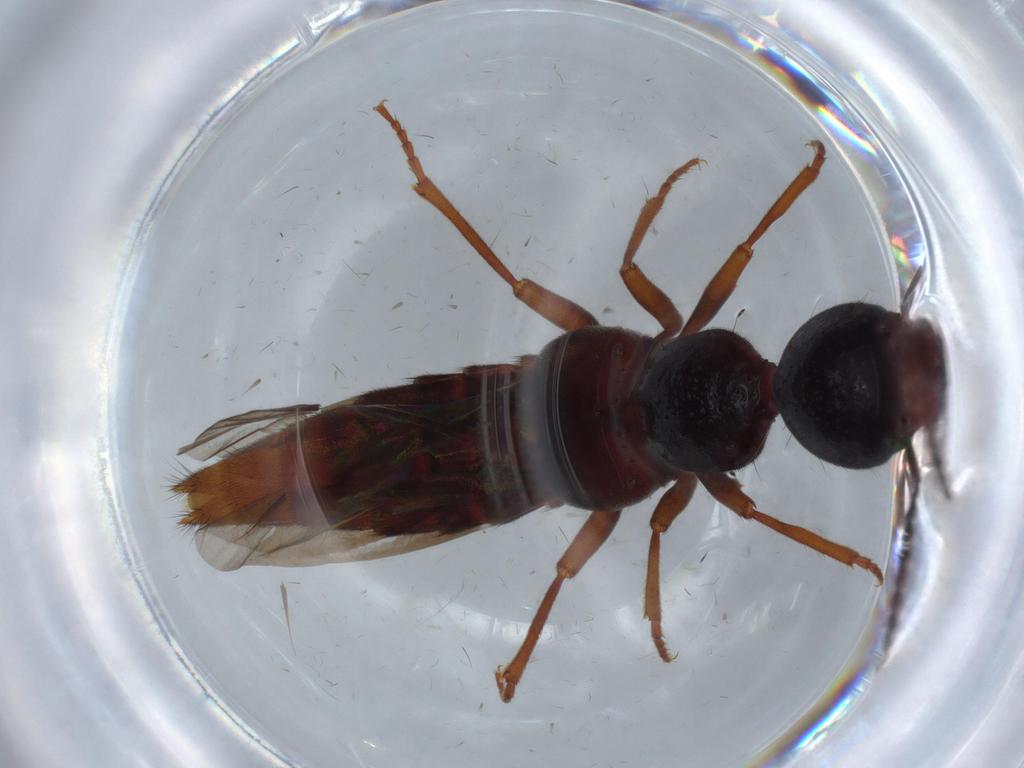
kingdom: Animalia
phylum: Arthropoda
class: Insecta
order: Coleoptera
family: Staphylinidae
